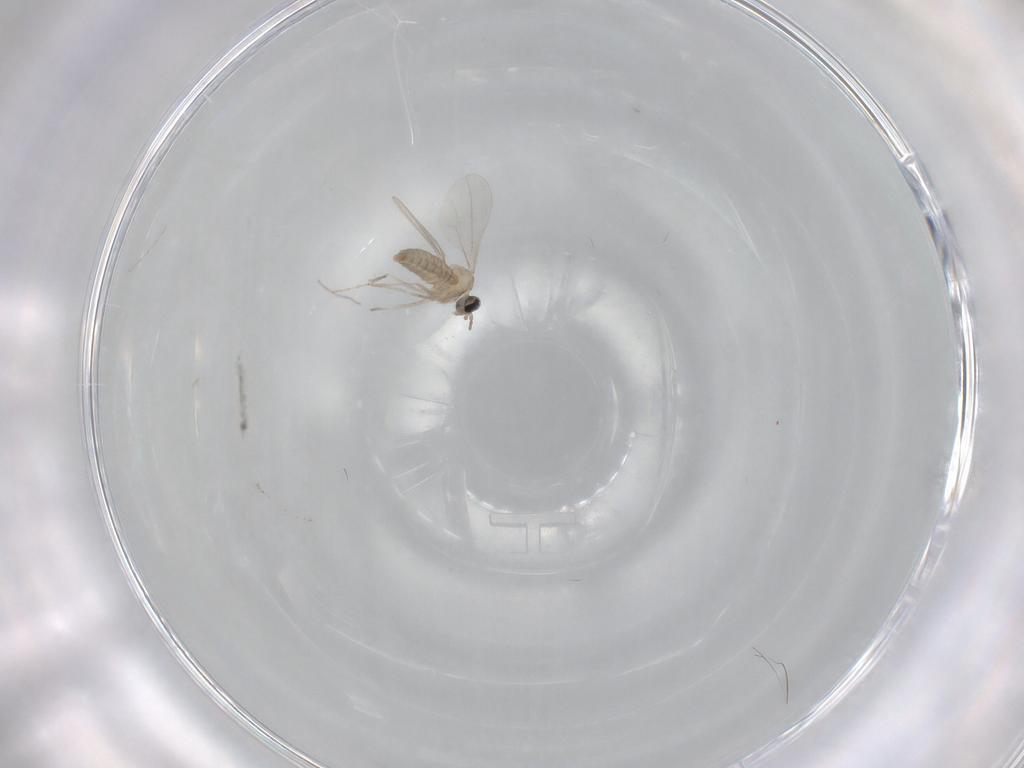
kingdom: Animalia
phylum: Arthropoda
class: Insecta
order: Diptera
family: Cecidomyiidae
